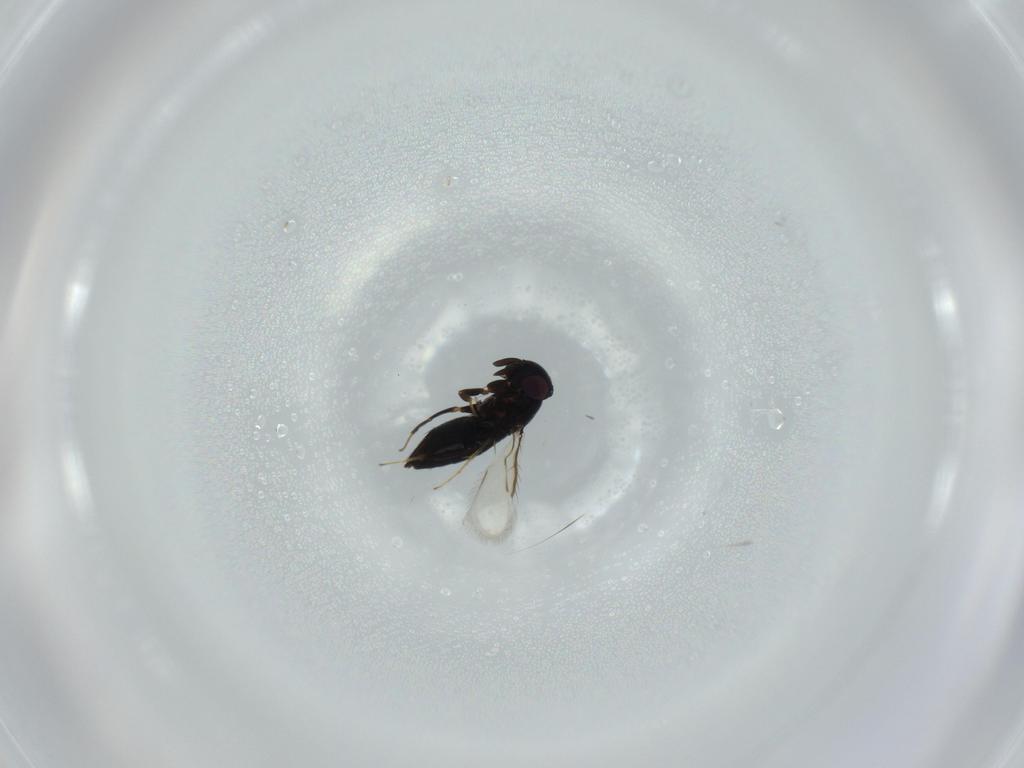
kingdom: Animalia
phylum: Arthropoda
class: Insecta
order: Hymenoptera
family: Signiphoridae
